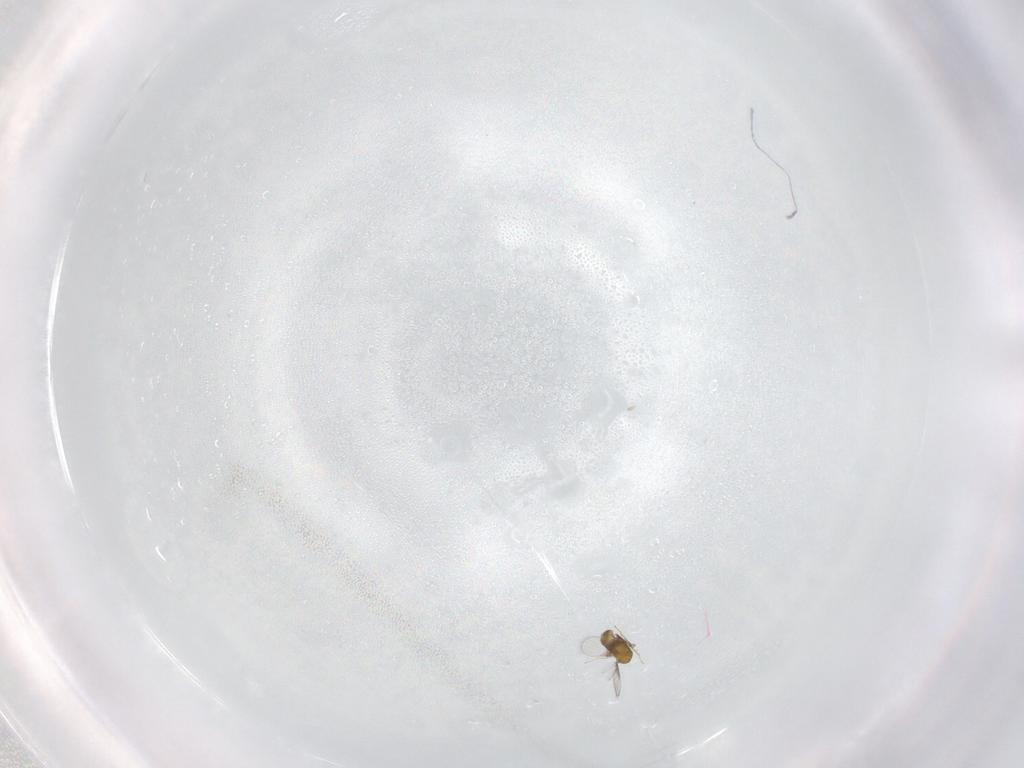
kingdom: Animalia
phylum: Arthropoda
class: Insecta
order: Hymenoptera
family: Trichogrammatidae
